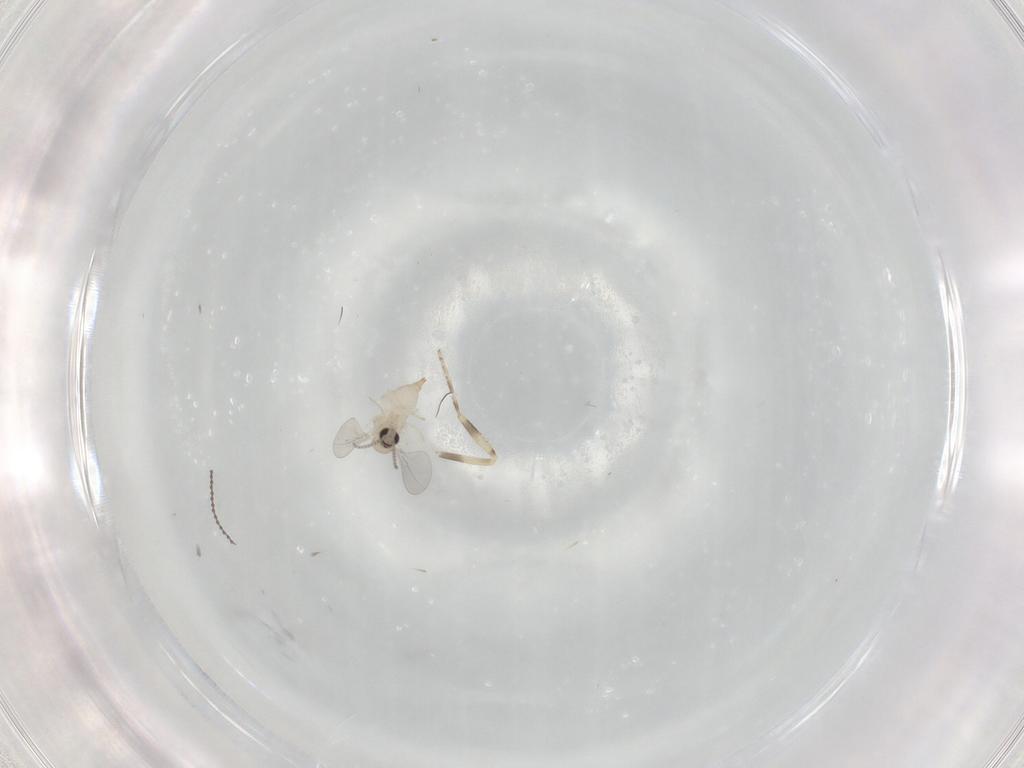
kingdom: Animalia
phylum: Arthropoda
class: Insecta
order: Diptera
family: Cecidomyiidae
